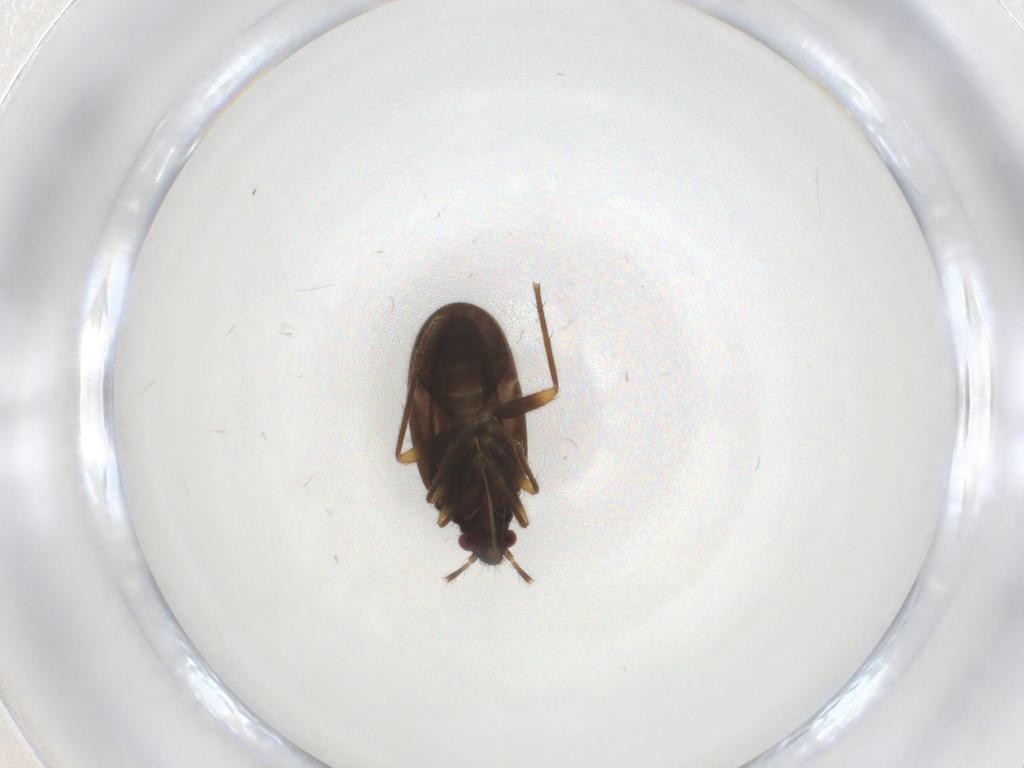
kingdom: Animalia
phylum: Arthropoda
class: Insecta
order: Hemiptera
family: Ceratocombidae
